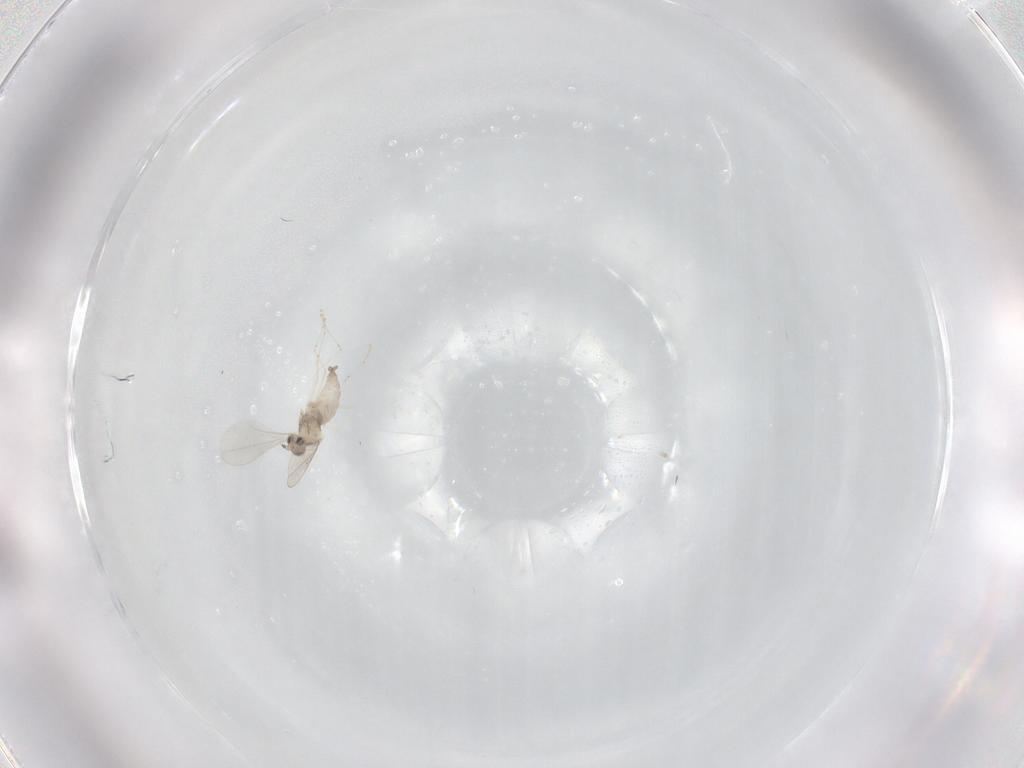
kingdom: Animalia
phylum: Arthropoda
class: Insecta
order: Diptera
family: Cecidomyiidae
